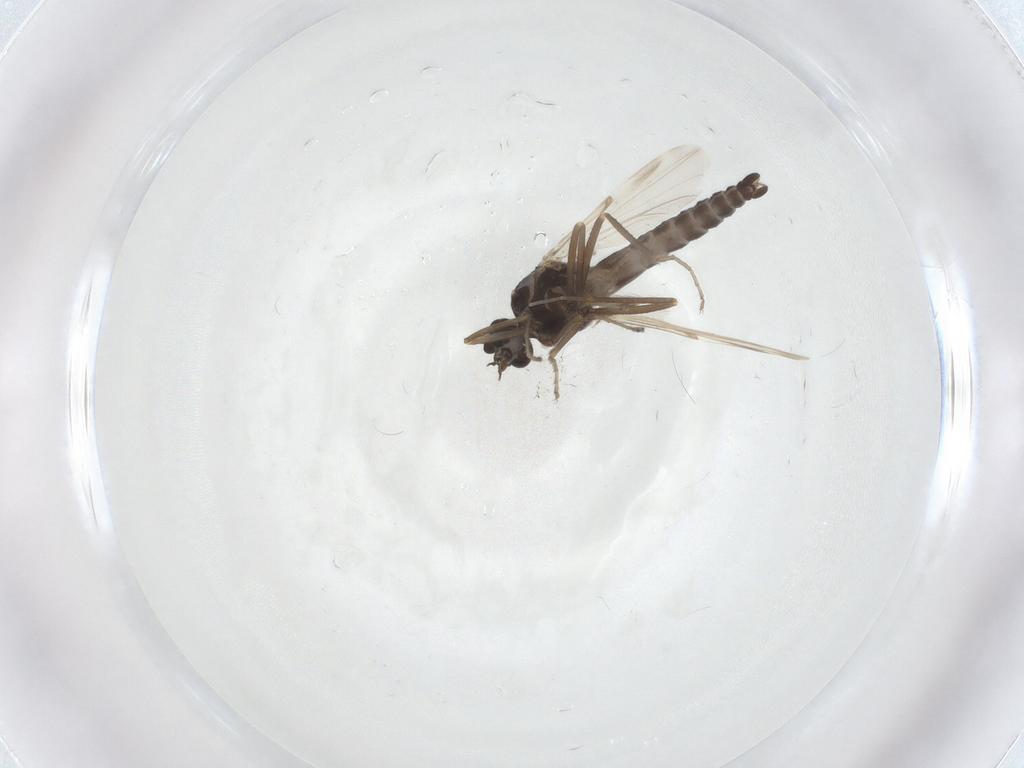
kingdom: Animalia
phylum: Arthropoda
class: Insecta
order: Diptera
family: Ceratopogonidae
